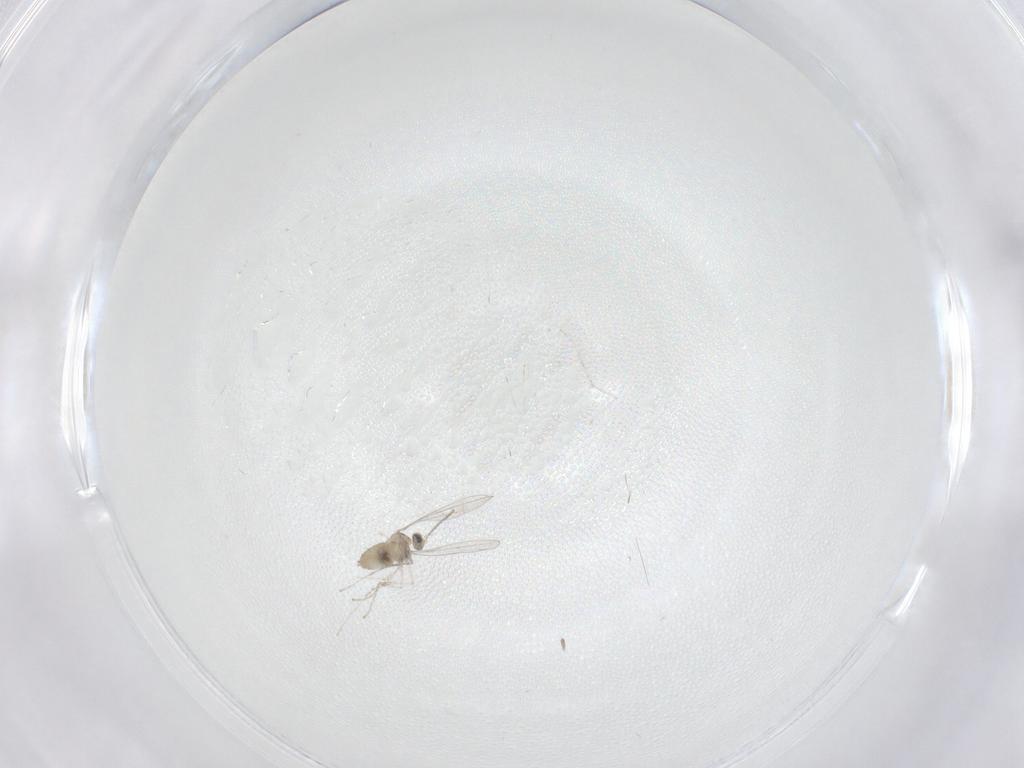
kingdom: Animalia
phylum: Arthropoda
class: Insecta
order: Diptera
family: Cecidomyiidae
